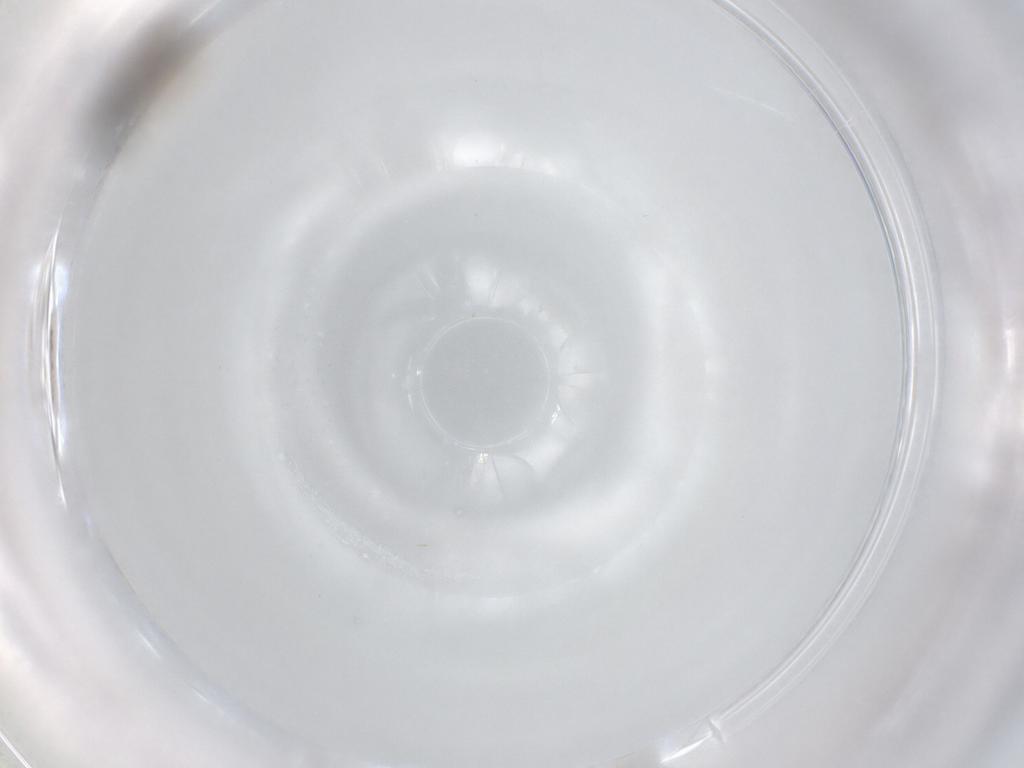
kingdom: Animalia
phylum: Arthropoda
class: Insecta
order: Hymenoptera
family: Diapriidae
